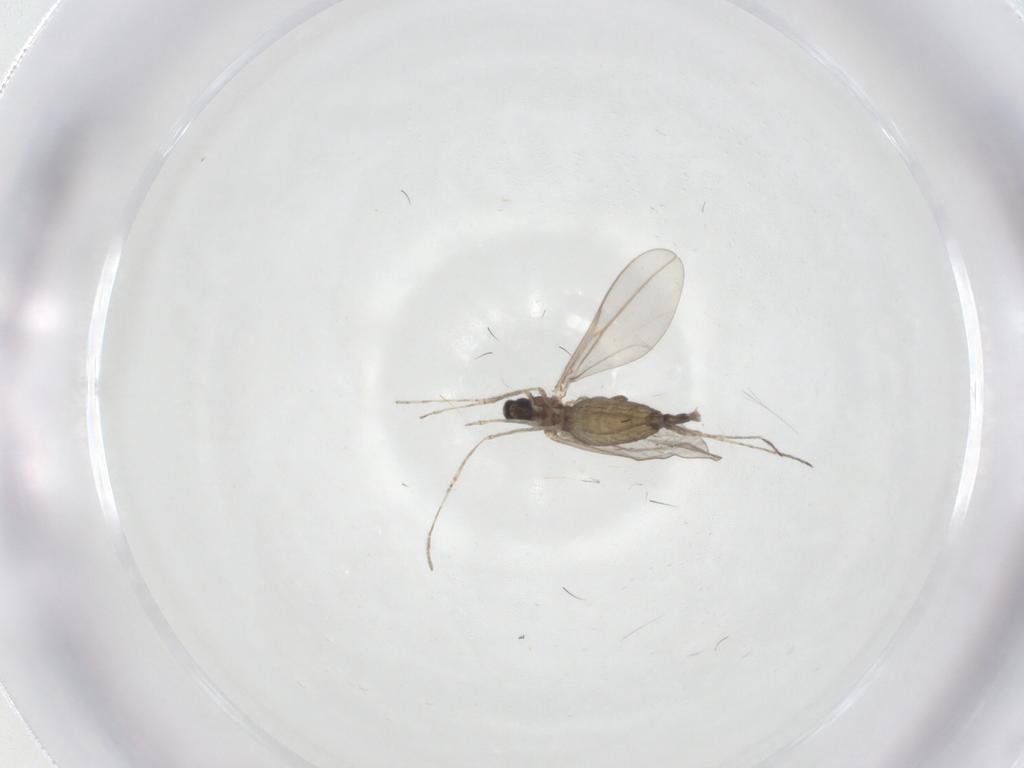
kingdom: Animalia
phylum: Arthropoda
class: Insecta
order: Diptera
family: Cecidomyiidae
